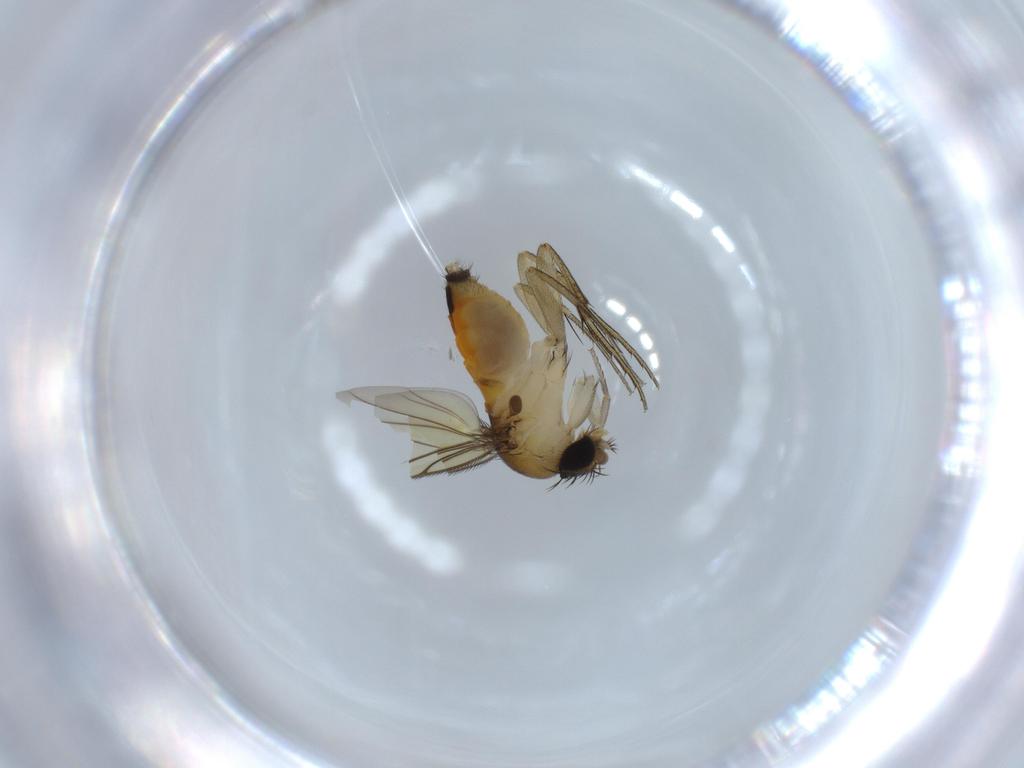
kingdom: Animalia
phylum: Arthropoda
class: Insecta
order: Diptera
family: Phoridae
